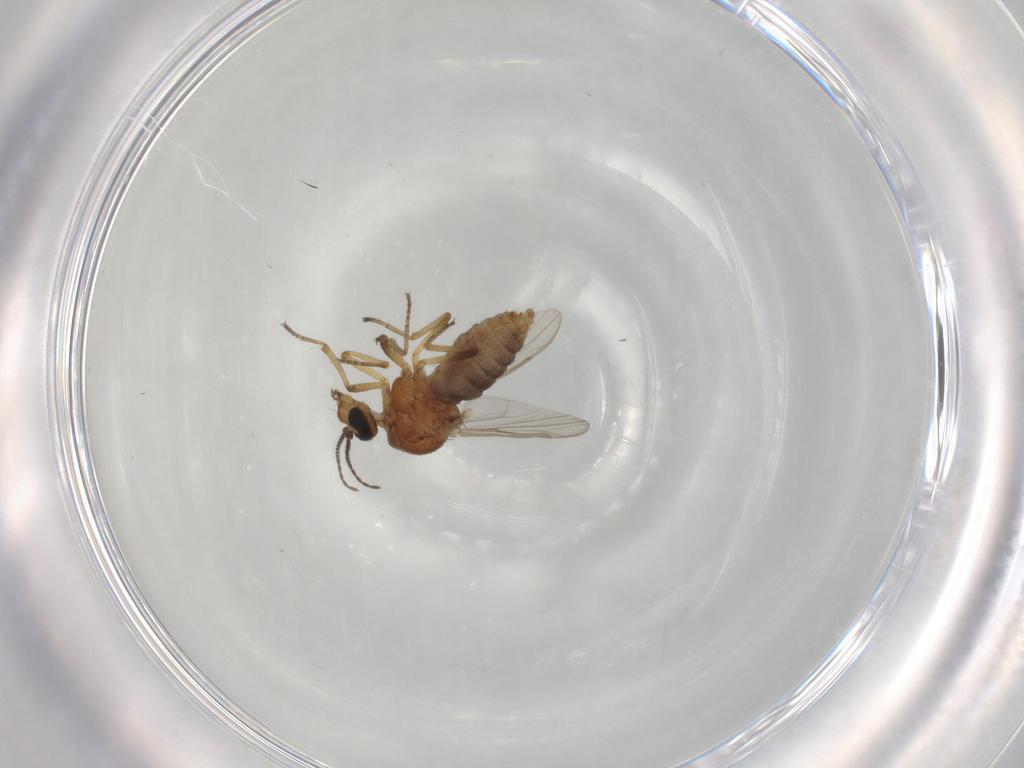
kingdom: Animalia
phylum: Arthropoda
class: Insecta
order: Diptera
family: Ceratopogonidae
